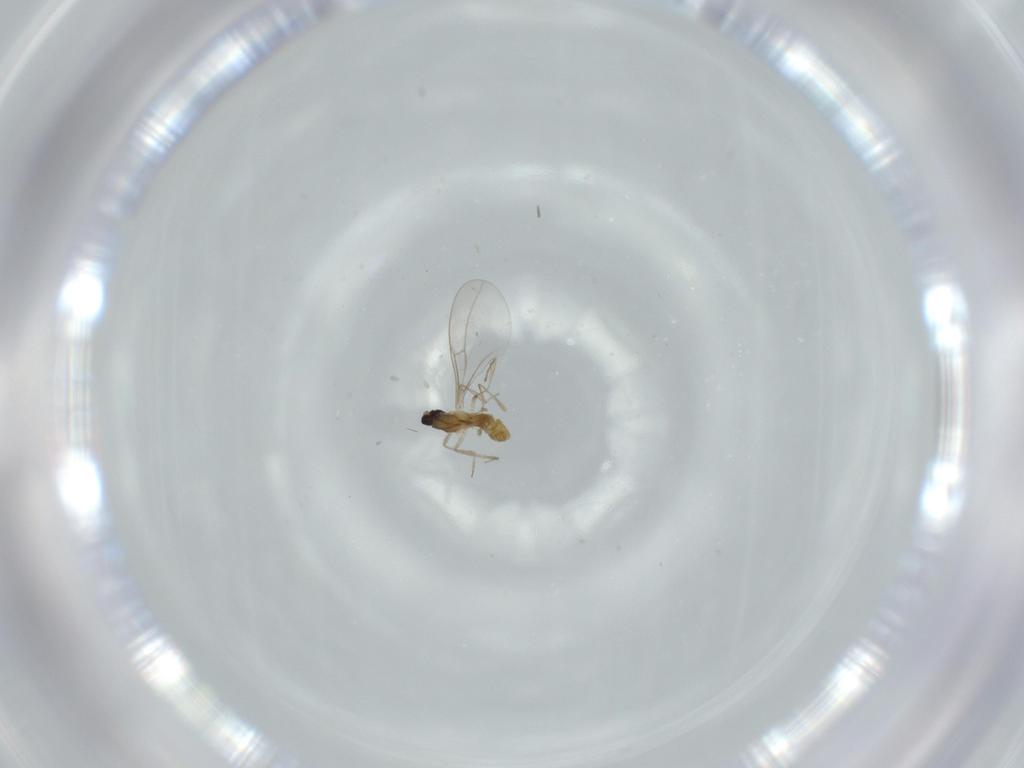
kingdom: Animalia
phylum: Arthropoda
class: Insecta
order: Diptera
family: Cecidomyiidae
